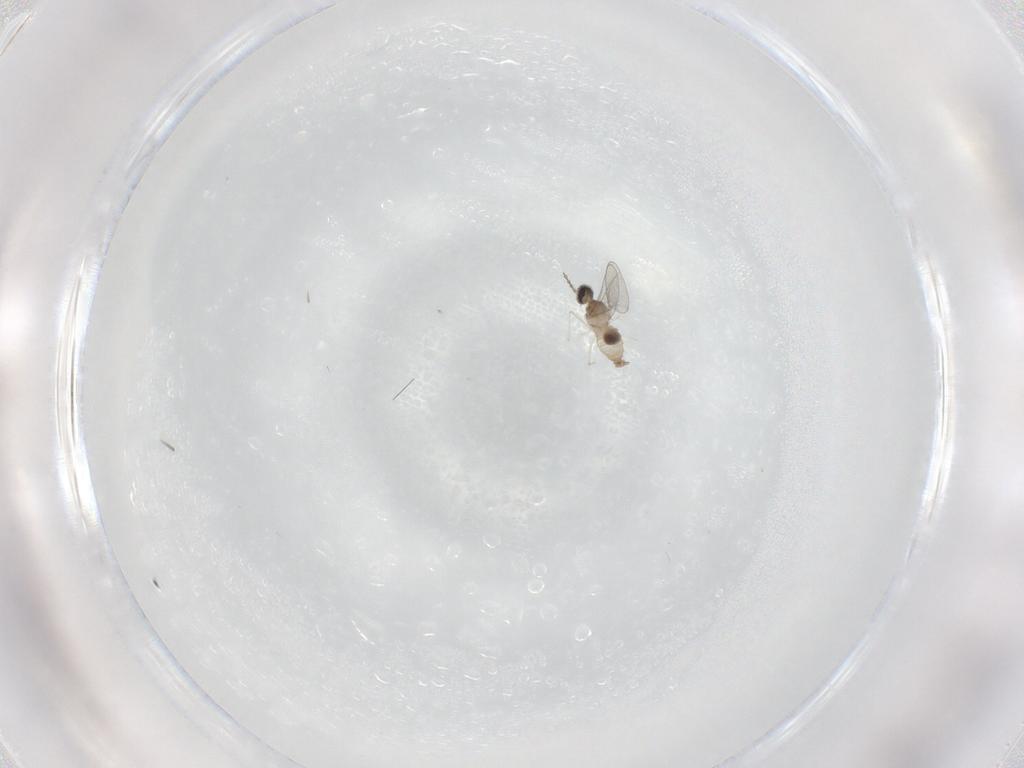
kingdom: Animalia
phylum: Arthropoda
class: Insecta
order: Diptera
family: Cecidomyiidae
